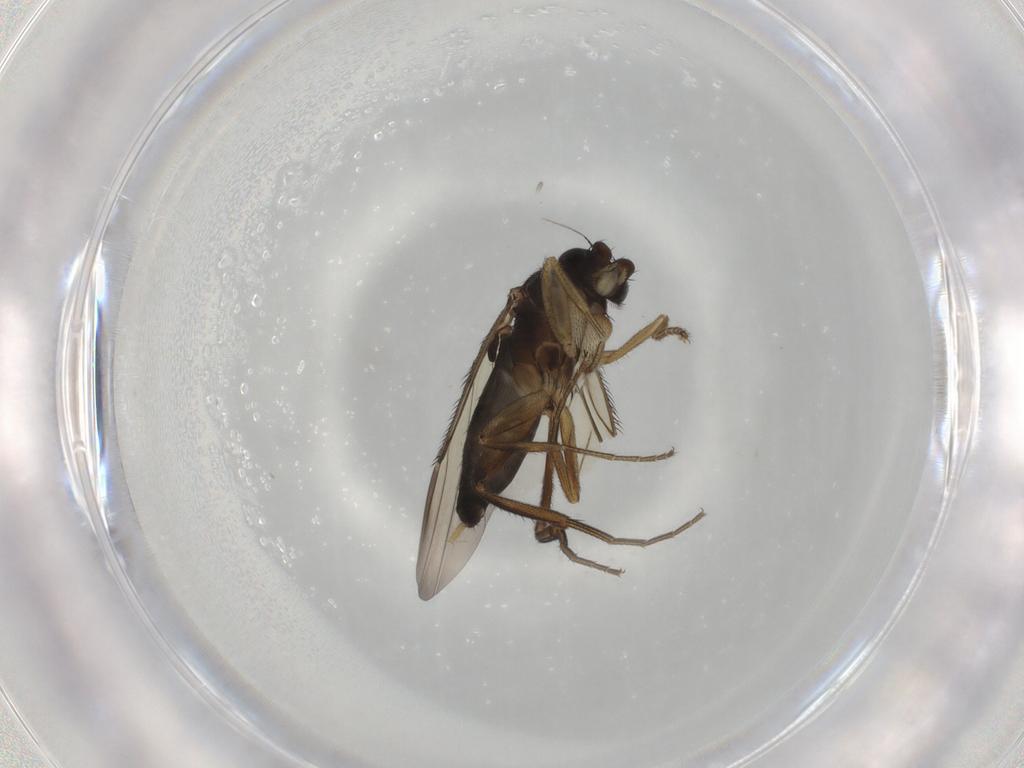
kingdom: Animalia
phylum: Arthropoda
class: Insecta
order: Diptera
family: Phoridae
